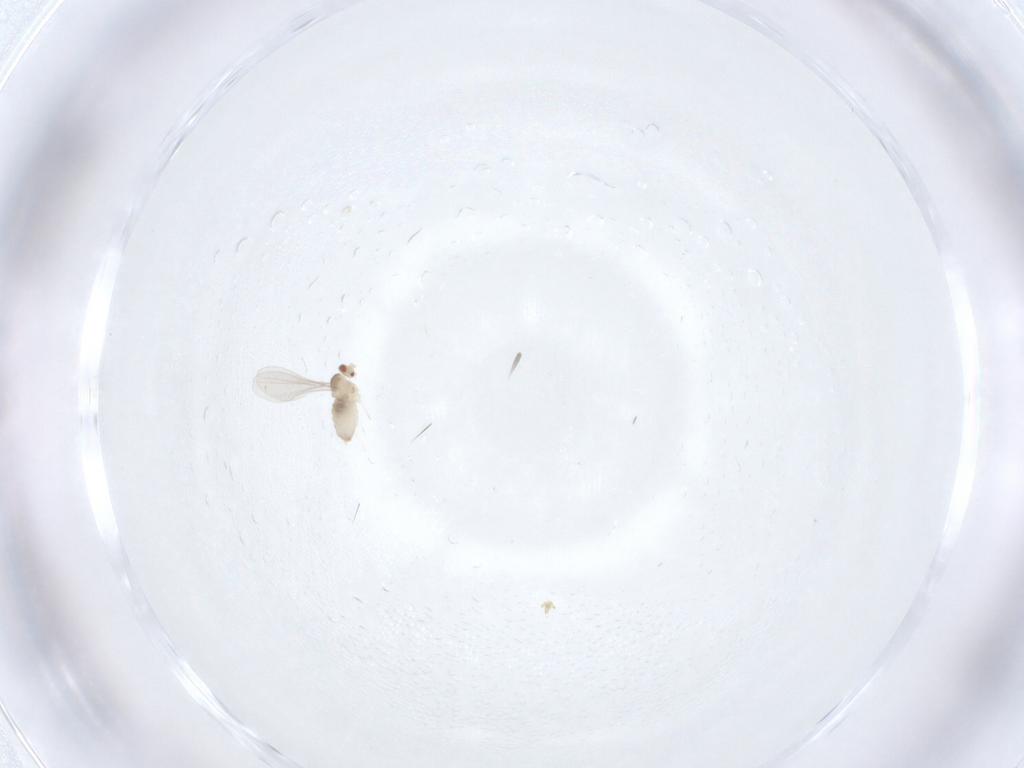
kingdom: Animalia
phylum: Arthropoda
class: Insecta
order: Diptera
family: Cecidomyiidae
